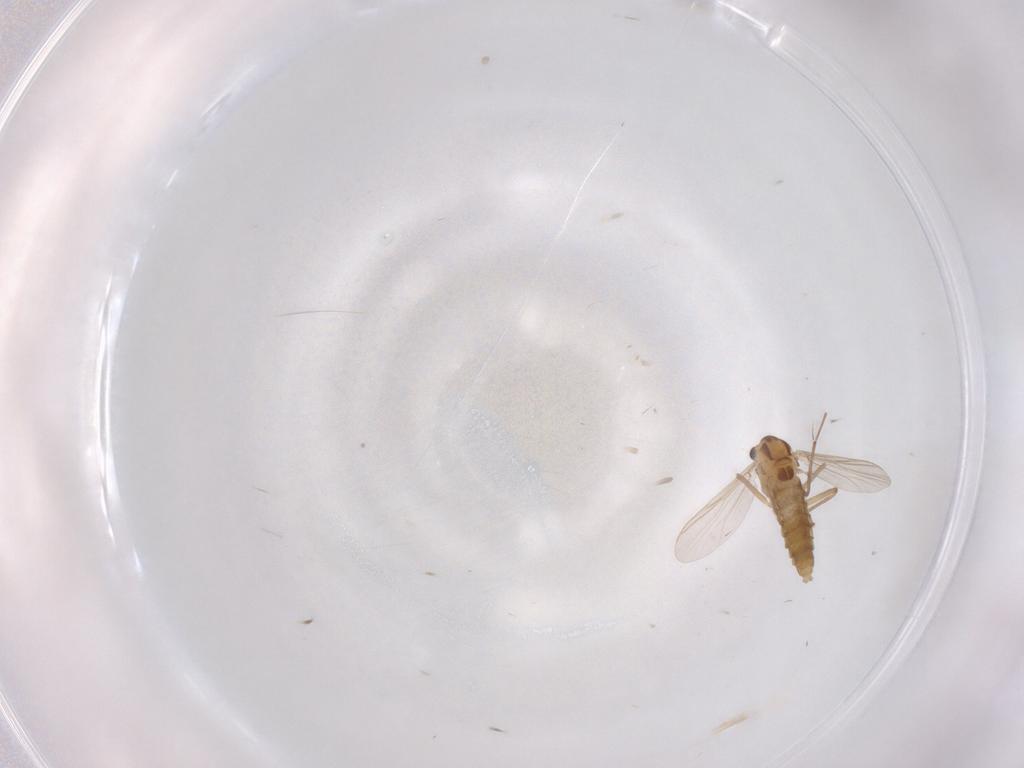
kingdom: Animalia
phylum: Arthropoda
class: Insecta
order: Diptera
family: Chironomidae
